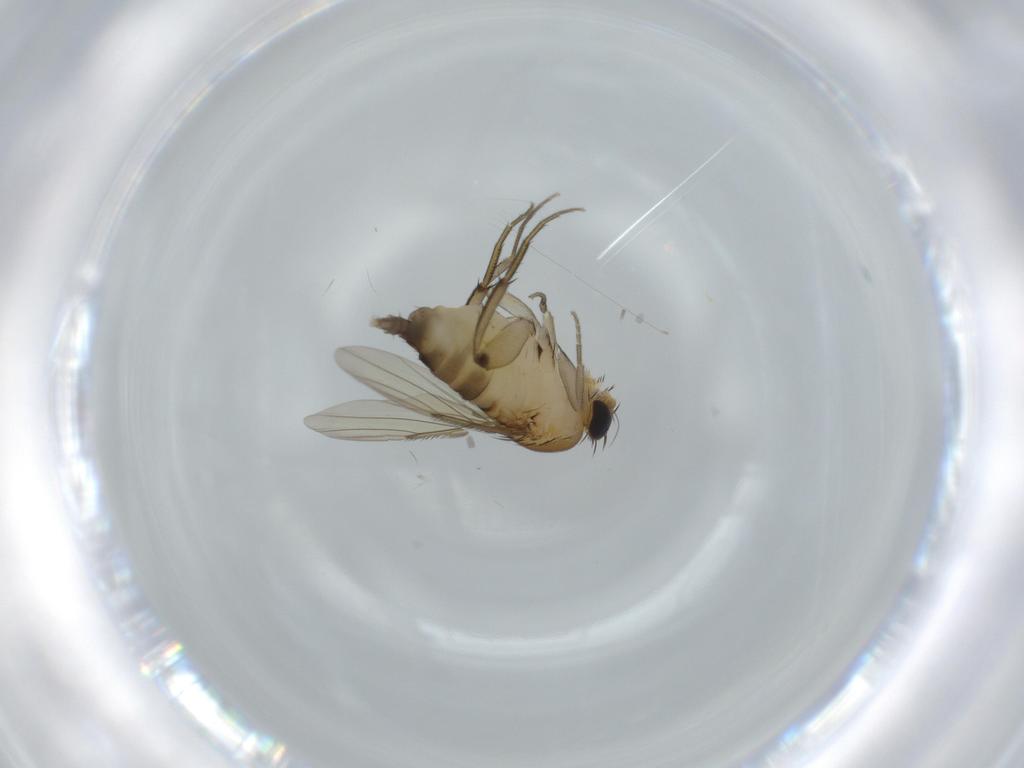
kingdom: Animalia
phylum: Arthropoda
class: Insecta
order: Diptera
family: Phoridae
